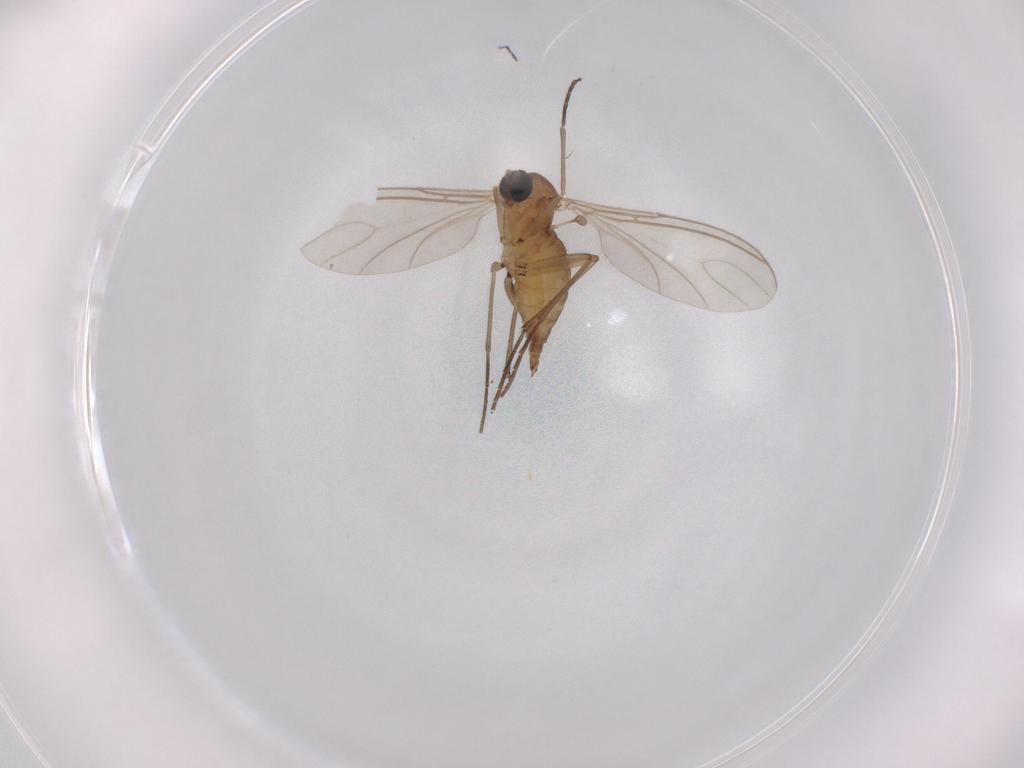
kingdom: Animalia
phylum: Arthropoda
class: Insecta
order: Diptera
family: Sciaridae
